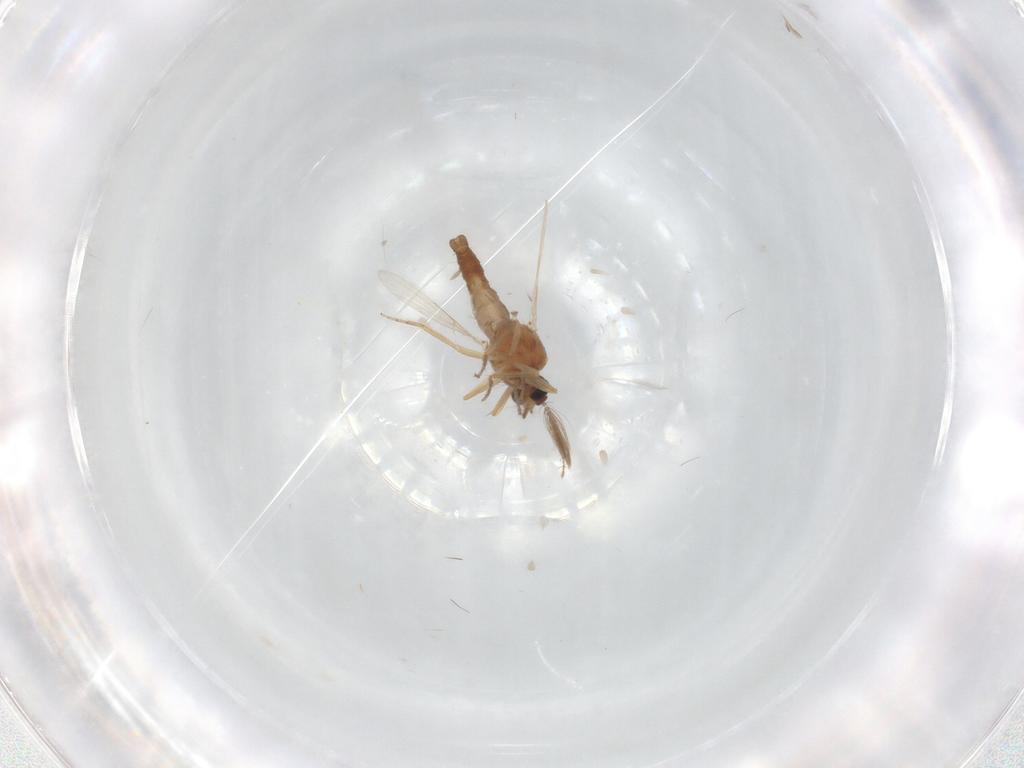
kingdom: Animalia
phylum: Arthropoda
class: Insecta
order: Diptera
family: Ceratopogonidae
